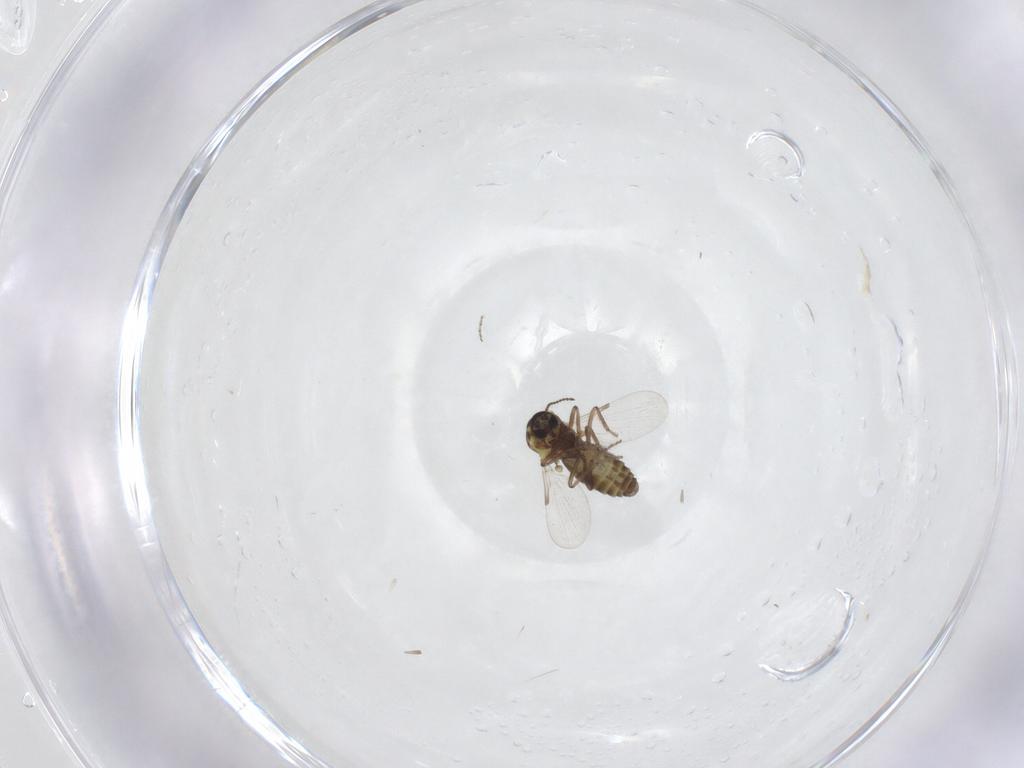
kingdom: Animalia
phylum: Arthropoda
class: Insecta
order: Diptera
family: Ceratopogonidae
